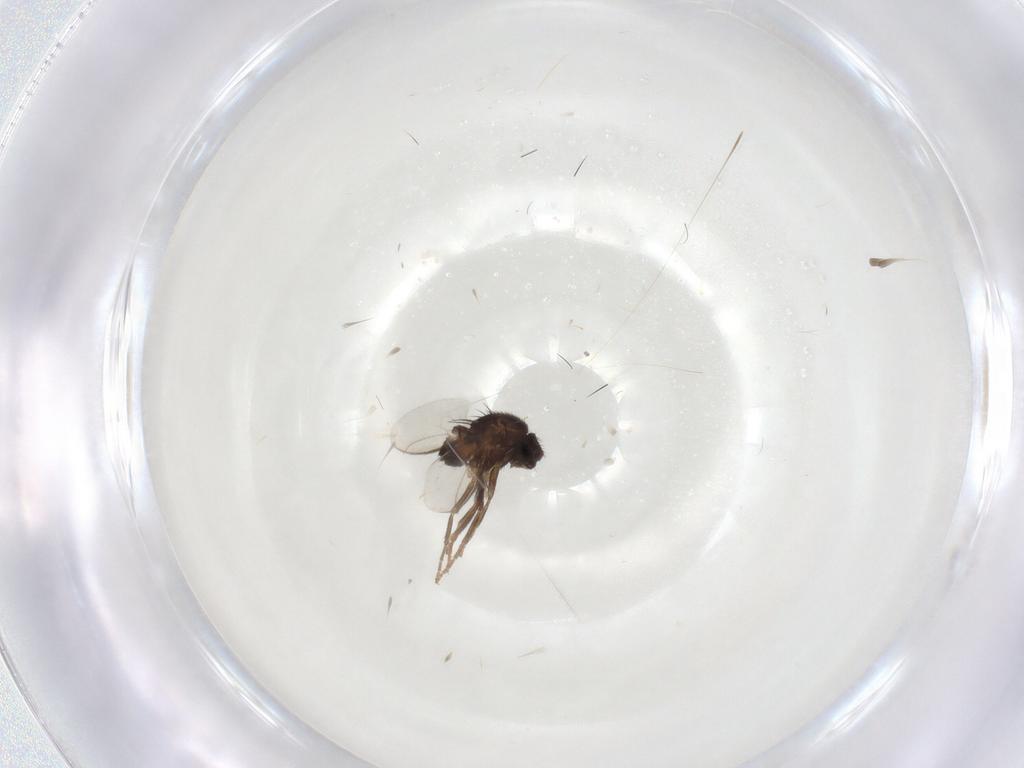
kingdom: Animalia
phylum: Arthropoda
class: Insecta
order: Diptera
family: Sphaeroceridae
